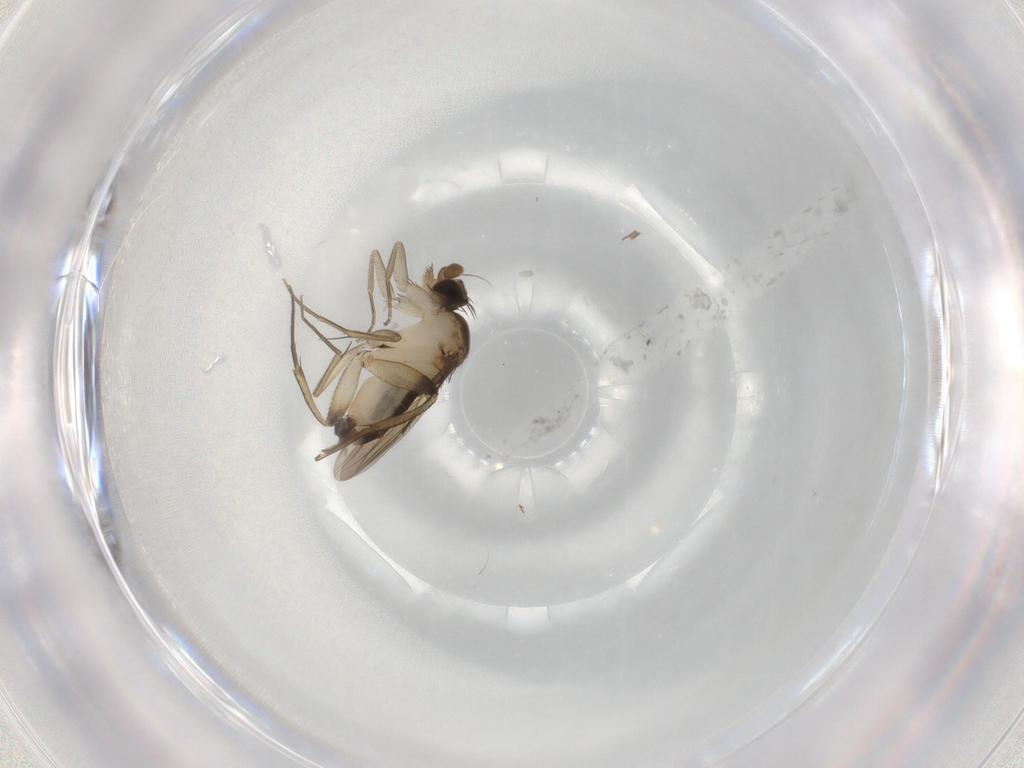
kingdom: Animalia
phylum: Arthropoda
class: Insecta
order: Diptera
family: Phoridae
